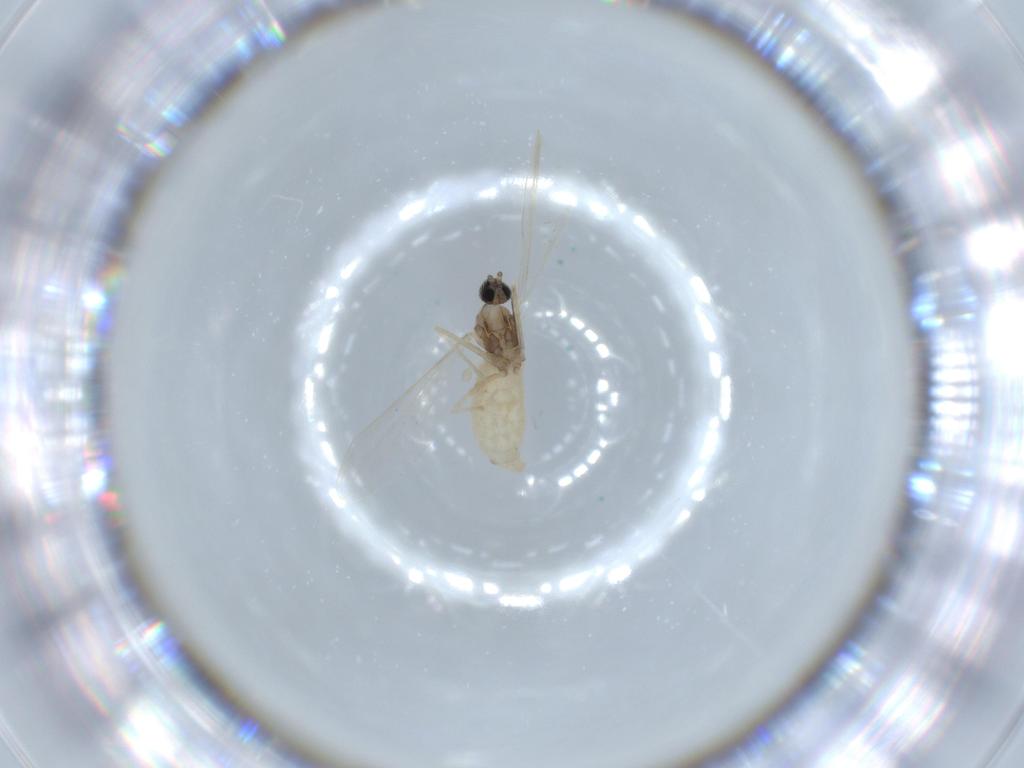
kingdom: Animalia
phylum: Arthropoda
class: Insecta
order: Diptera
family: Cecidomyiidae
